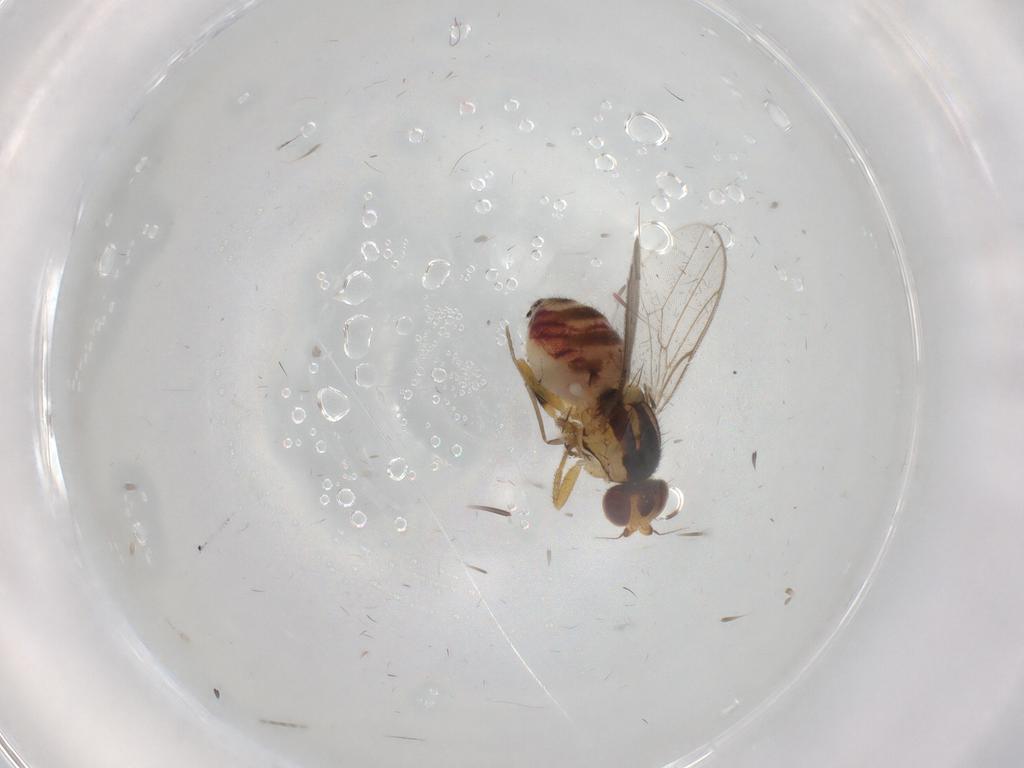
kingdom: Animalia
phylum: Arthropoda
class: Insecta
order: Diptera
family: Chloropidae
